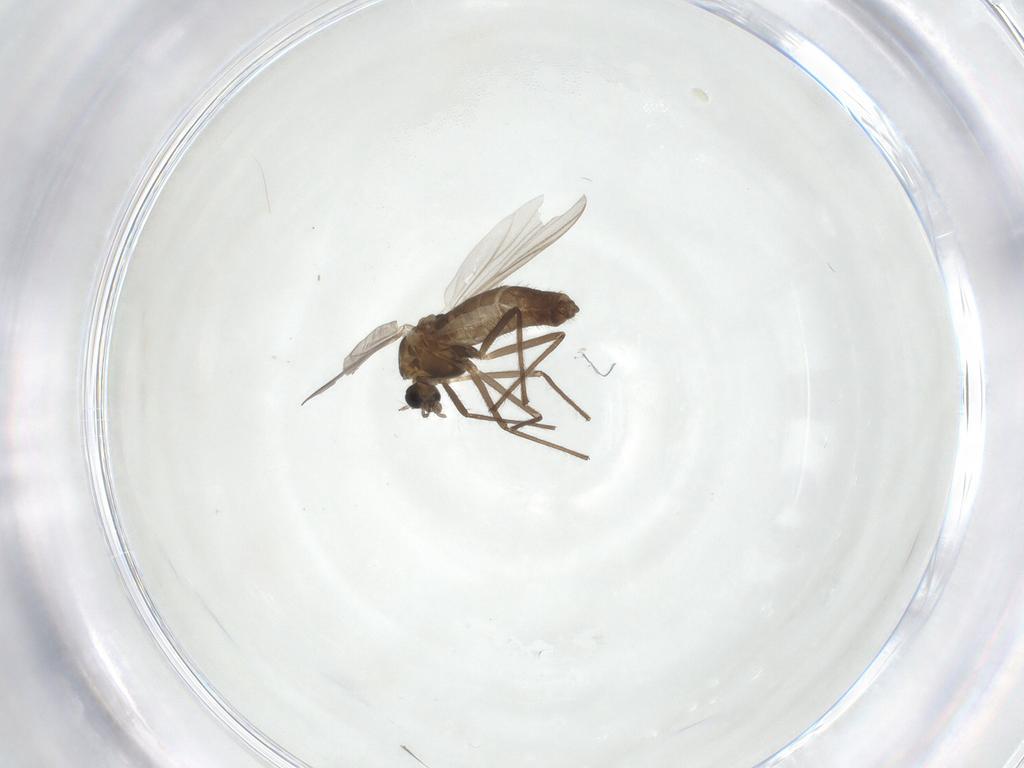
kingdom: Animalia
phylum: Arthropoda
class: Insecta
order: Diptera
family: Chironomidae
